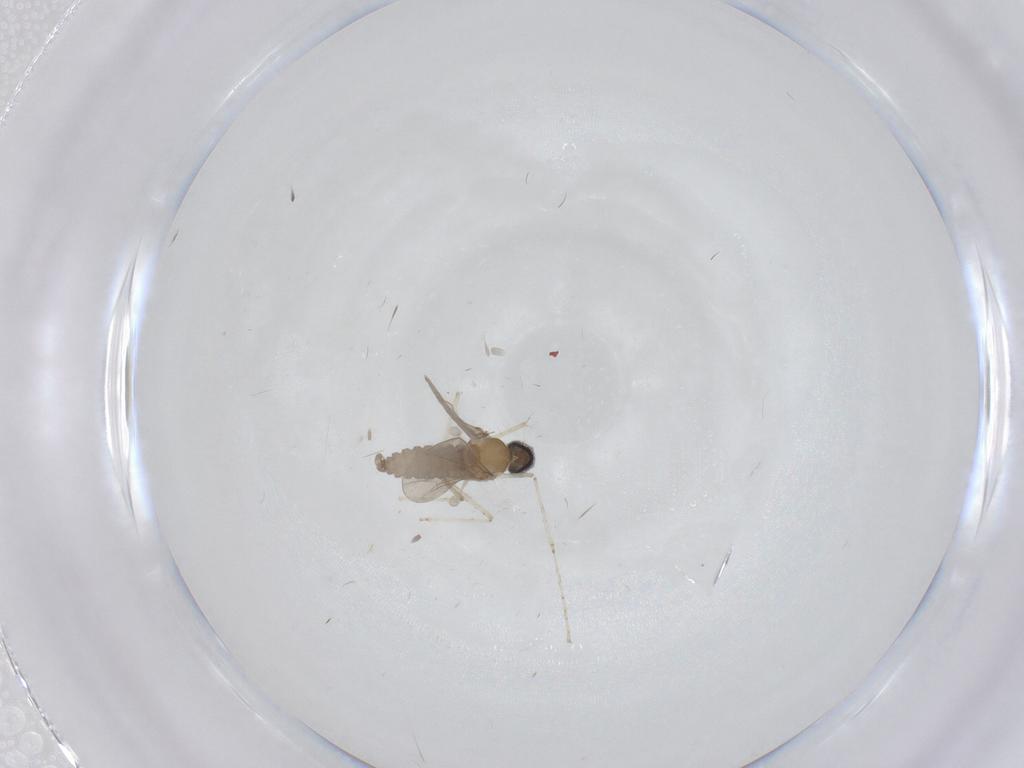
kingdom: Animalia
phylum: Arthropoda
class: Insecta
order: Diptera
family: Cecidomyiidae
